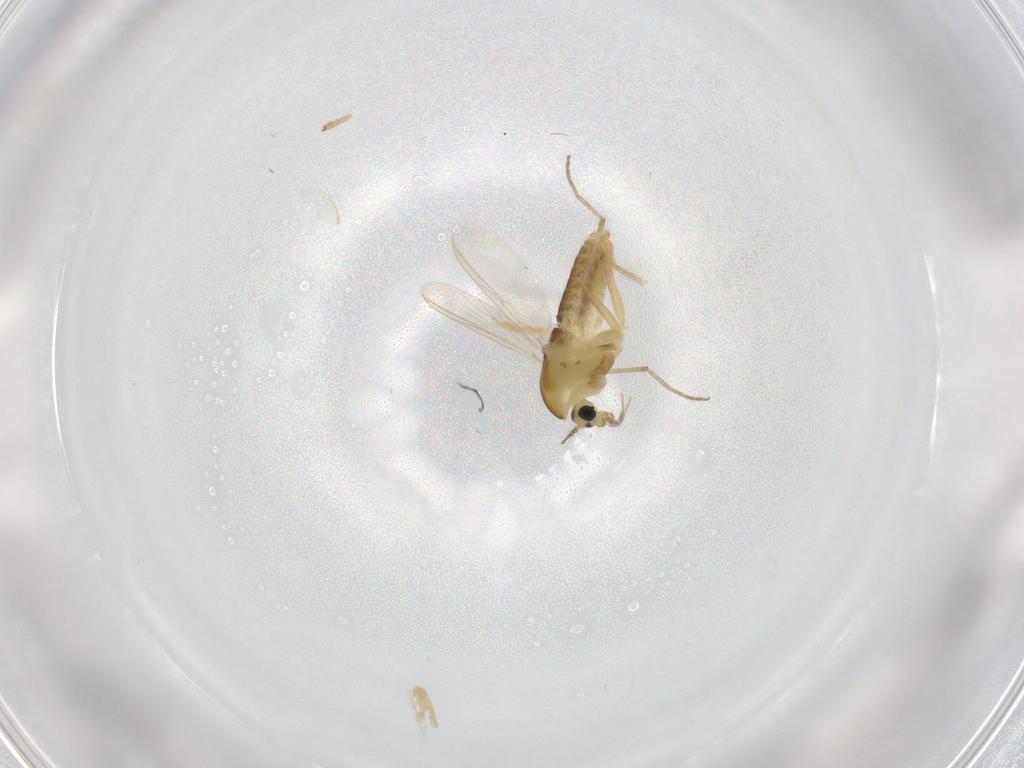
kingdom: Animalia
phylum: Arthropoda
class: Insecta
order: Diptera
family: Chironomidae
